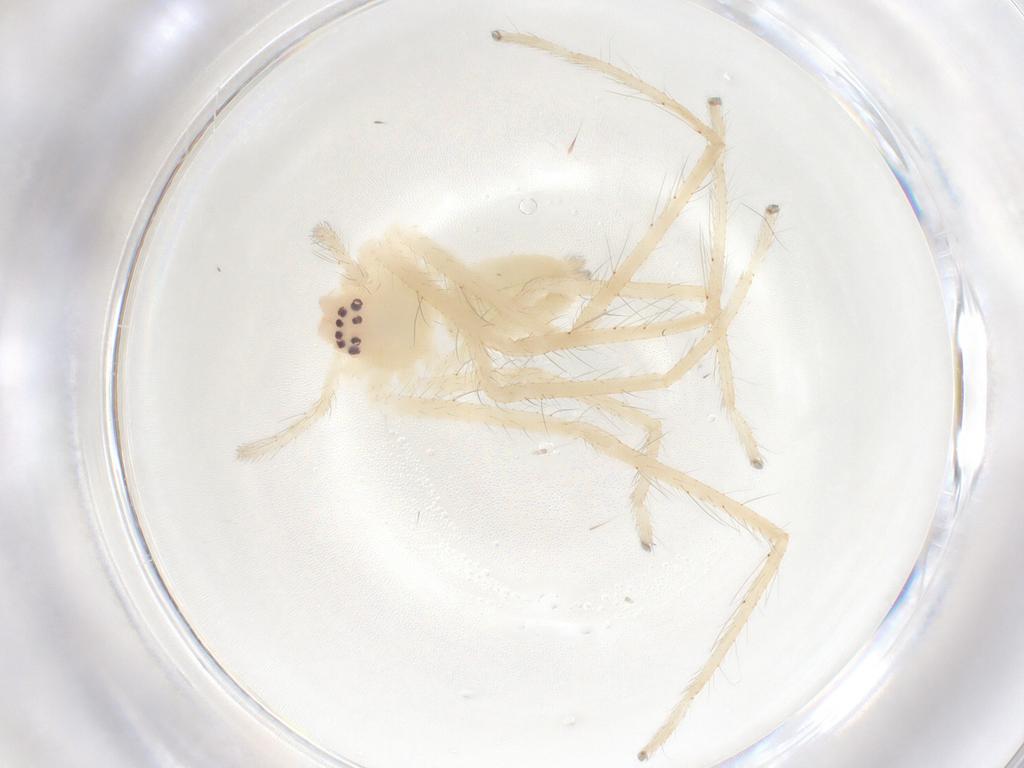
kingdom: Animalia
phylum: Arthropoda
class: Arachnida
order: Araneae
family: Sparassidae
